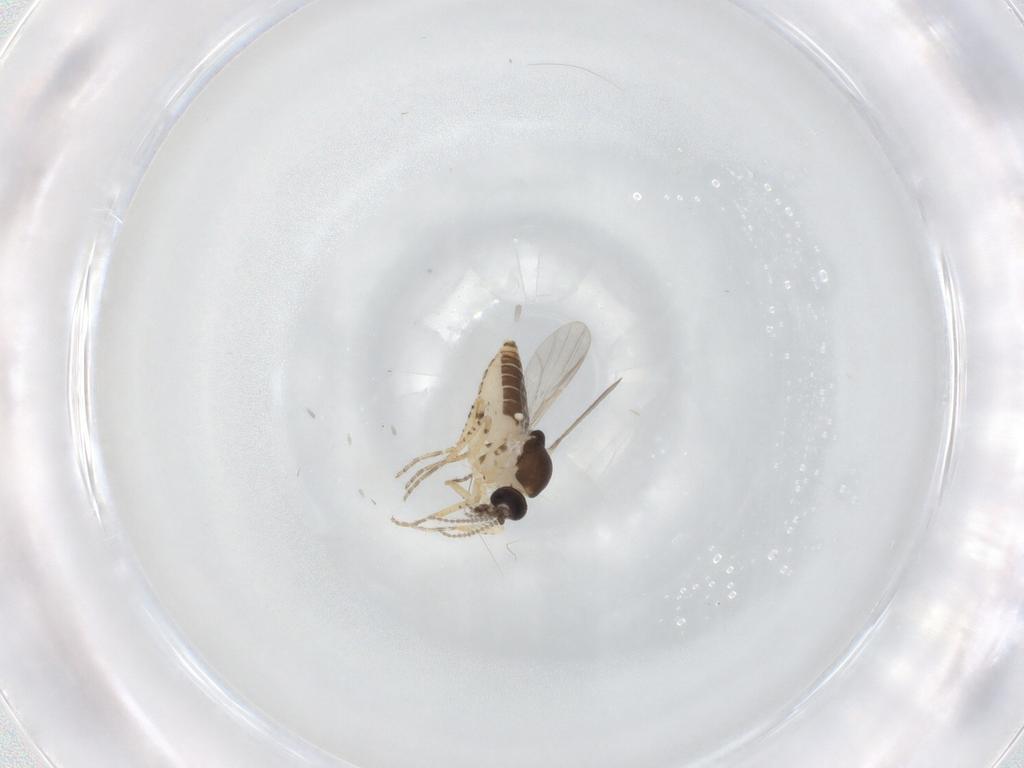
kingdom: Animalia
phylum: Arthropoda
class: Insecta
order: Diptera
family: Ceratopogonidae
